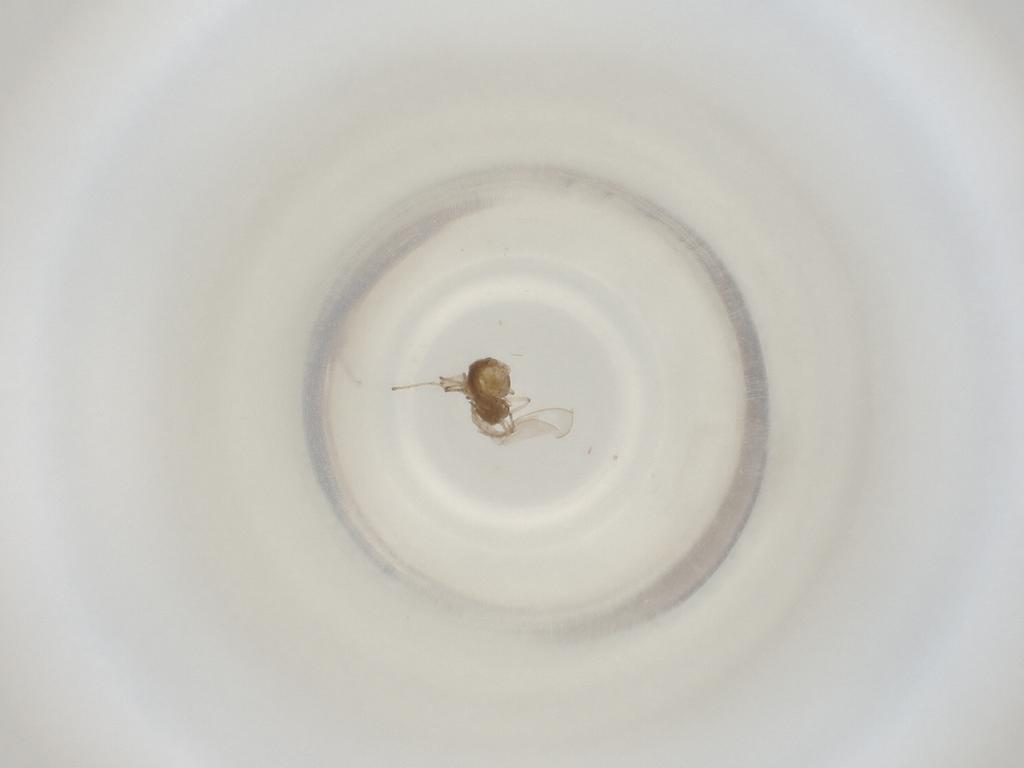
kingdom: Animalia
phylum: Arthropoda
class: Insecta
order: Diptera
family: Cecidomyiidae
